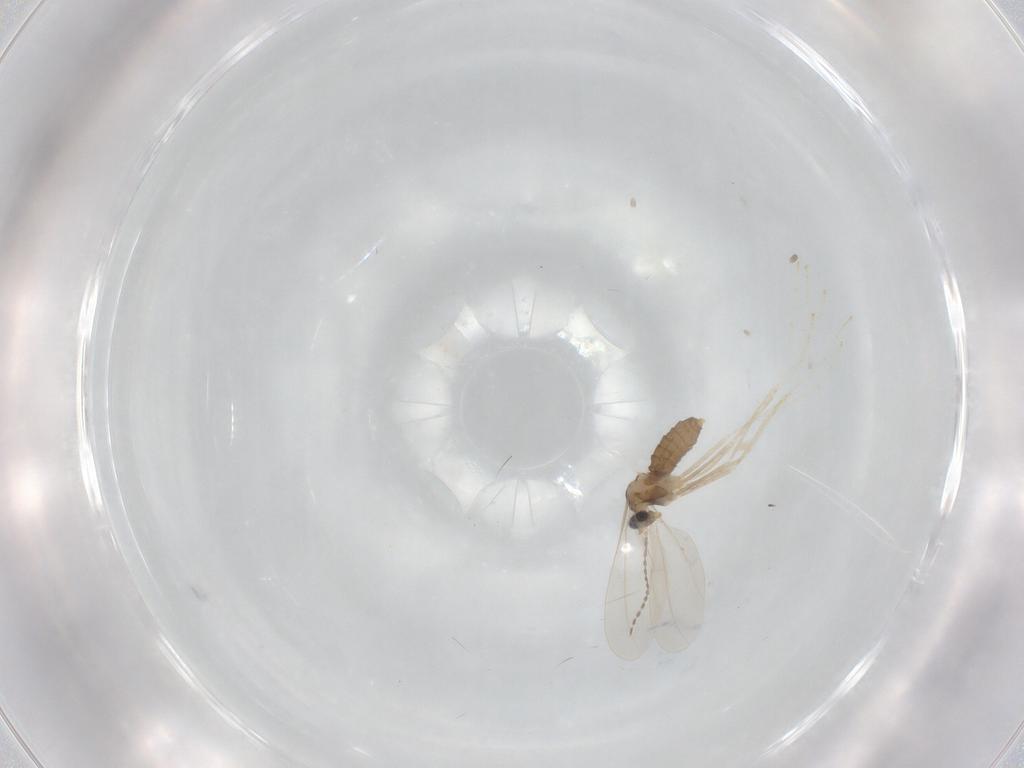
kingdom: Animalia
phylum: Arthropoda
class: Insecta
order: Diptera
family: Cecidomyiidae
